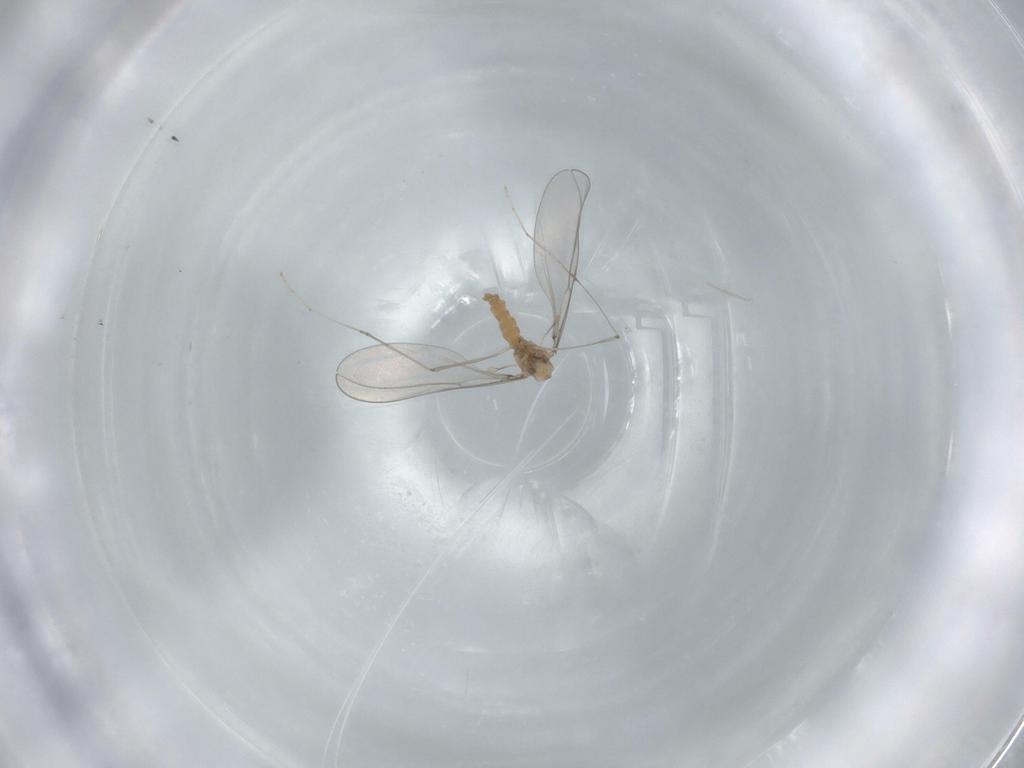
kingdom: Animalia
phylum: Arthropoda
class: Insecta
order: Diptera
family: Cecidomyiidae
